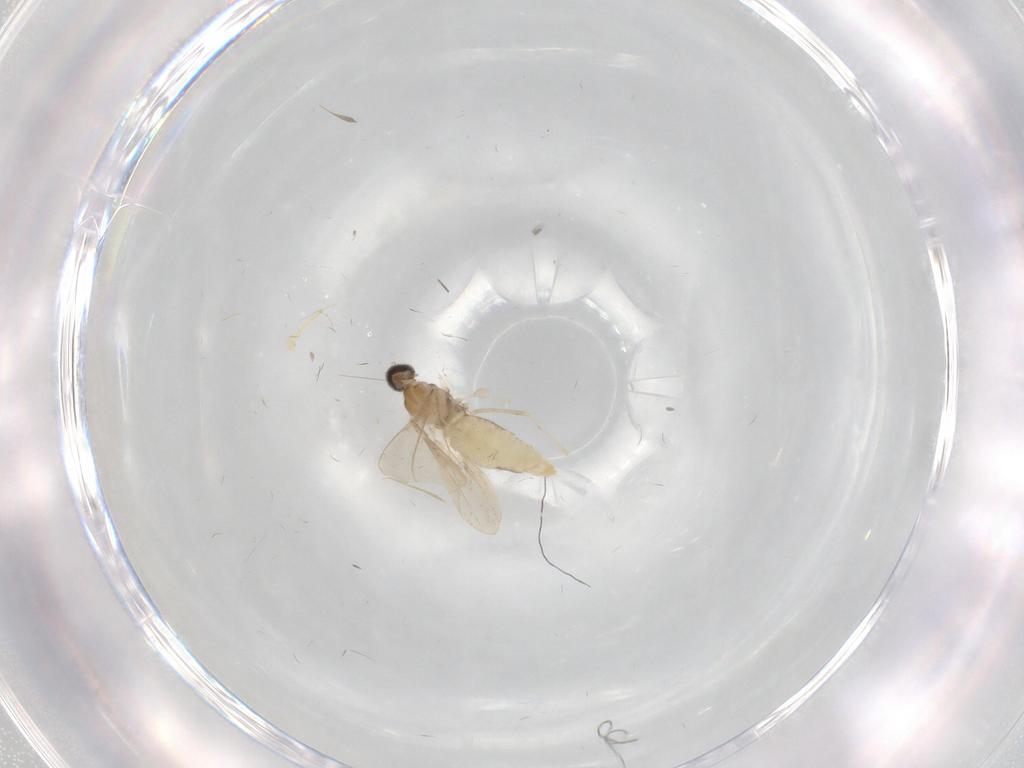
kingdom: Animalia
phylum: Arthropoda
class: Insecta
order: Diptera
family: Cecidomyiidae
